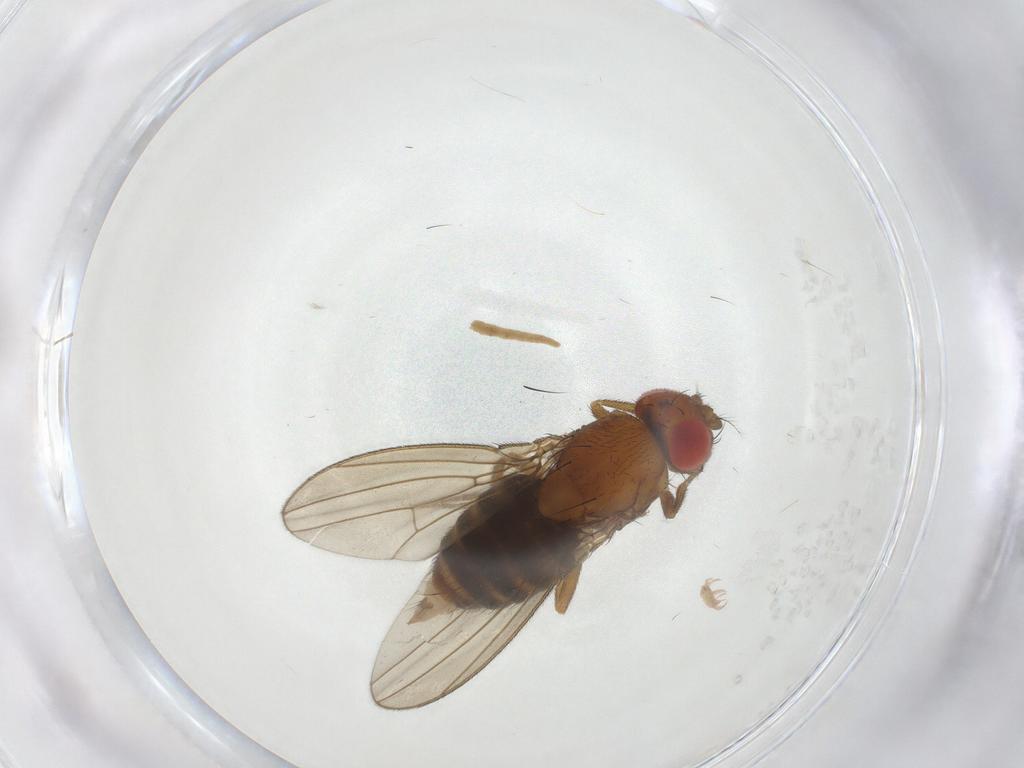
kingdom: Animalia
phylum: Arthropoda
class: Insecta
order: Diptera
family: Drosophilidae
